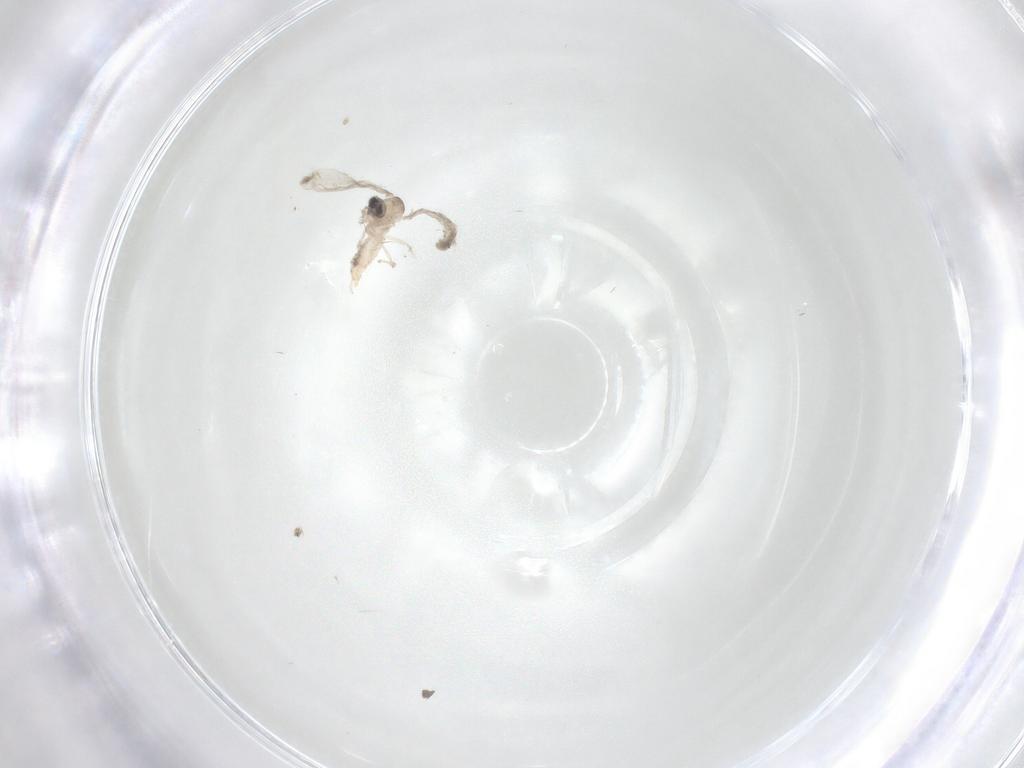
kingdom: Animalia
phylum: Arthropoda
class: Insecta
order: Diptera
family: Cecidomyiidae
